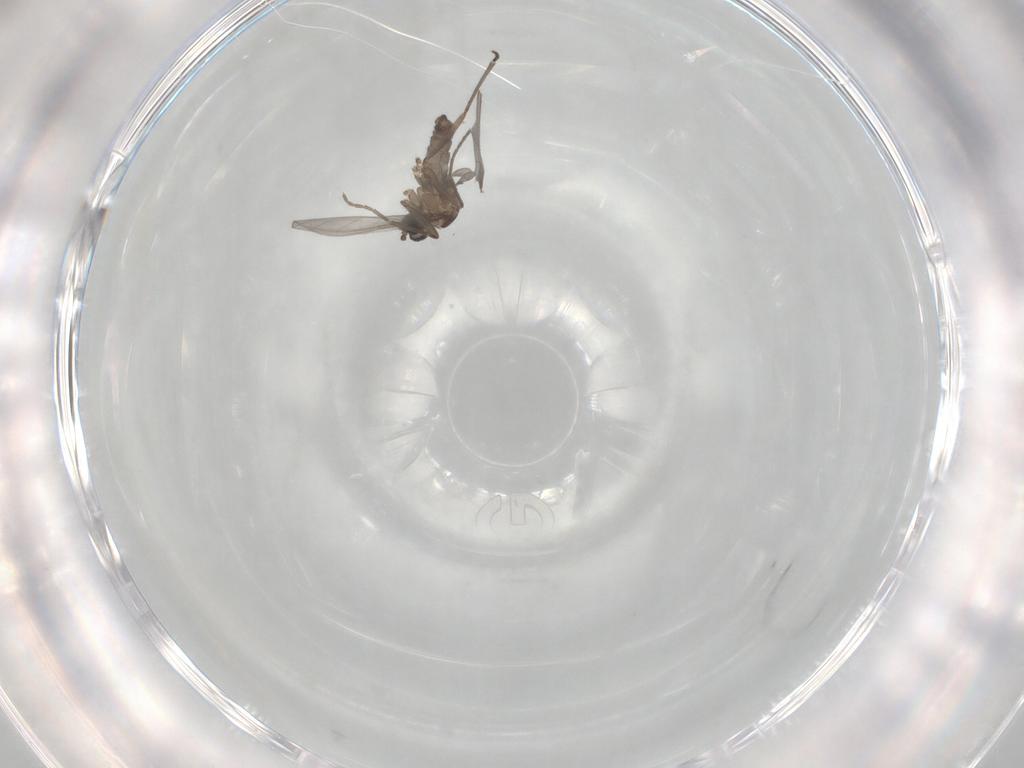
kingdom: Animalia
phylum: Arthropoda
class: Insecta
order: Diptera
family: Sciaridae
